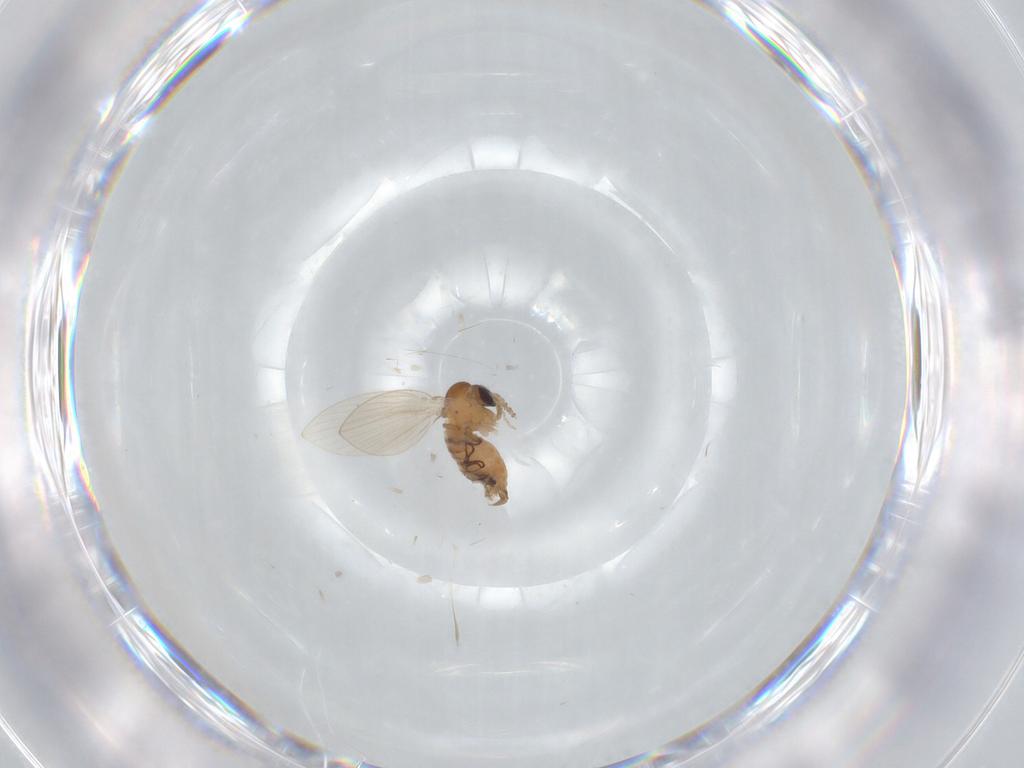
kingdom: Animalia
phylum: Arthropoda
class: Insecta
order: Diptera
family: Psychodidae
